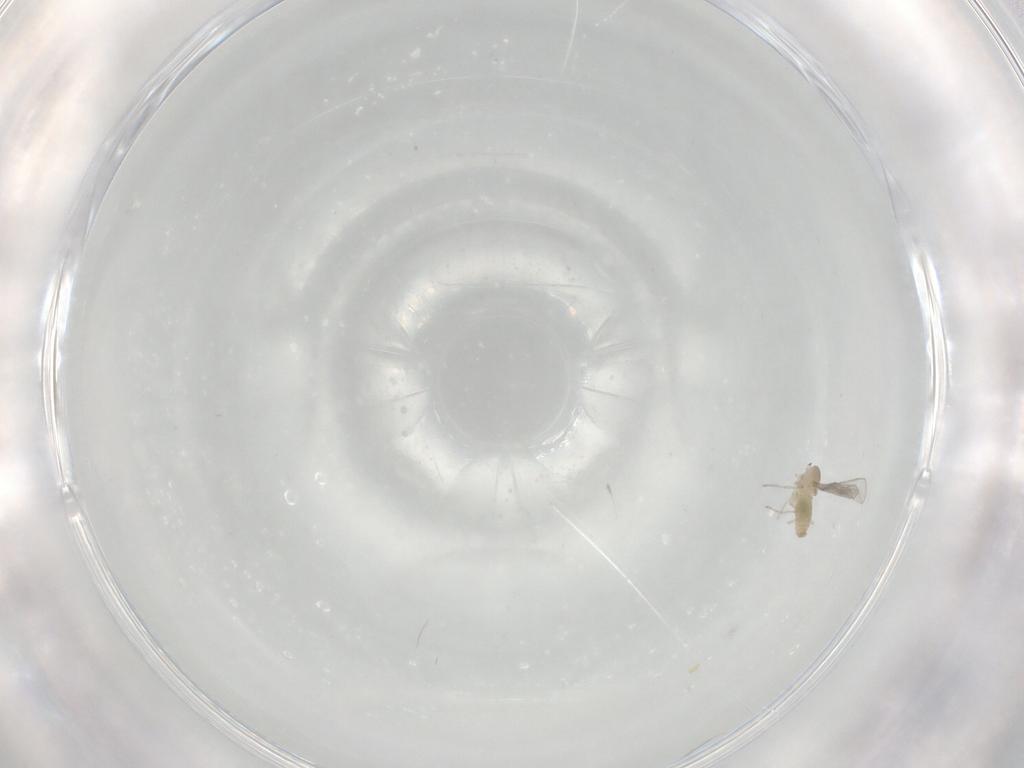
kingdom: Animalia
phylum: Arthropoda
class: Insecta
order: Diptera
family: Cecidomyiidae
